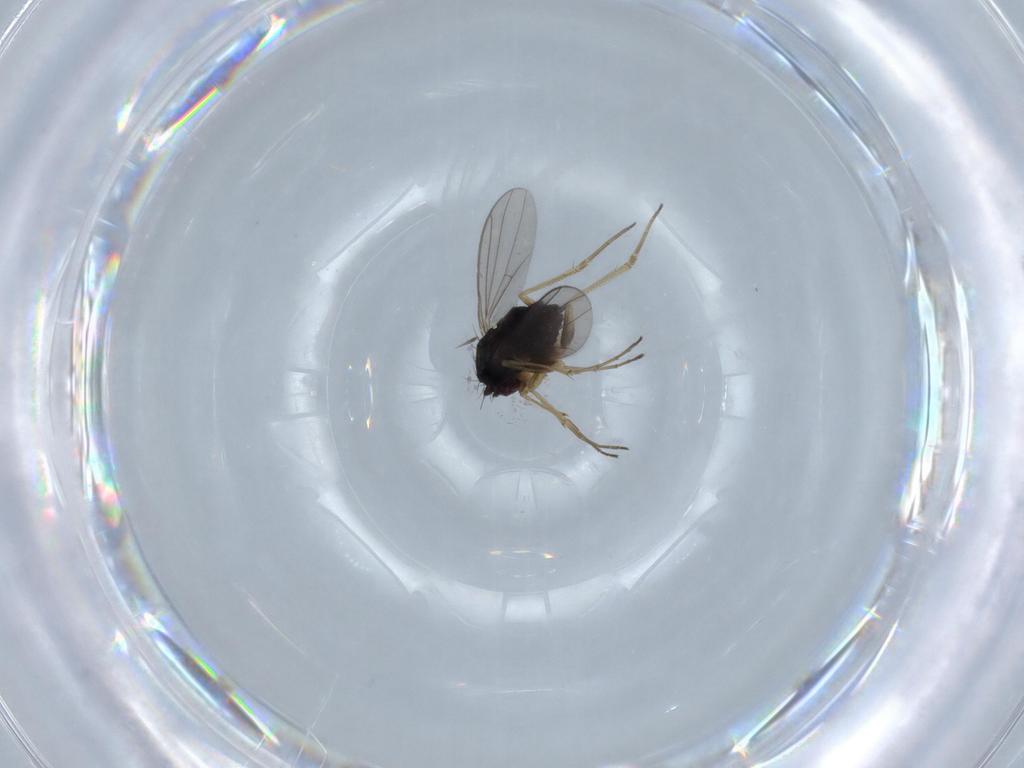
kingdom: Animalia
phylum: Arthropoda
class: Insecta
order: Diptera
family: Dolichopodidae
